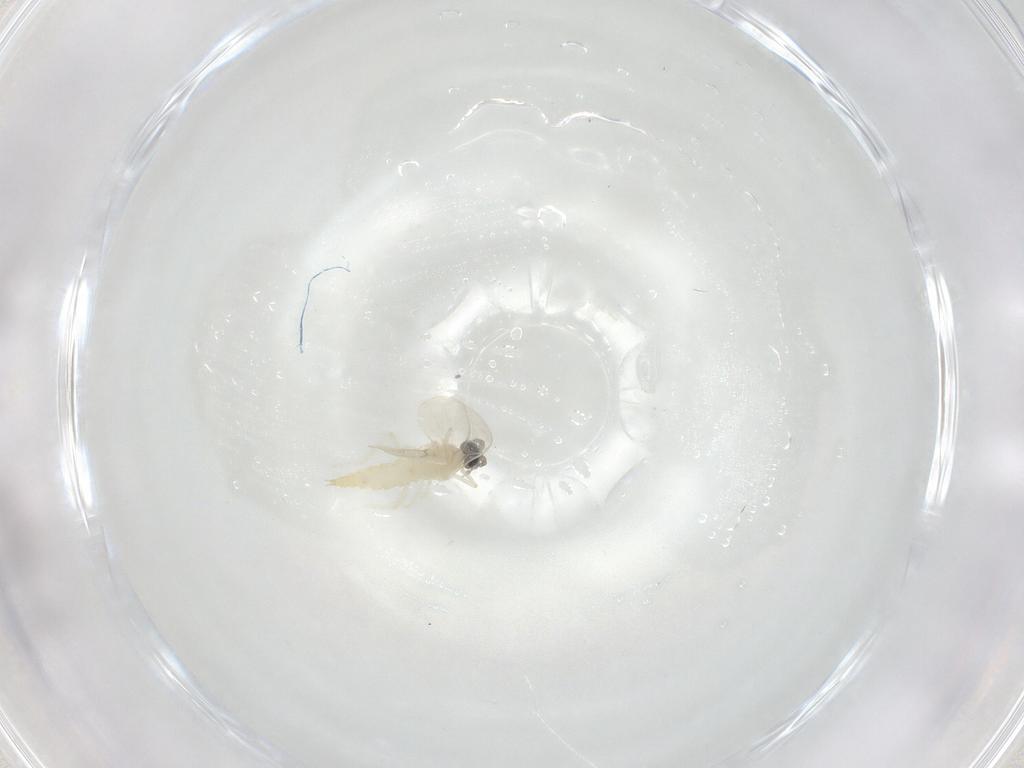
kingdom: Animalia
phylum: Arthropoda
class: Insecta
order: Diptera
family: Cecidomyiidae
